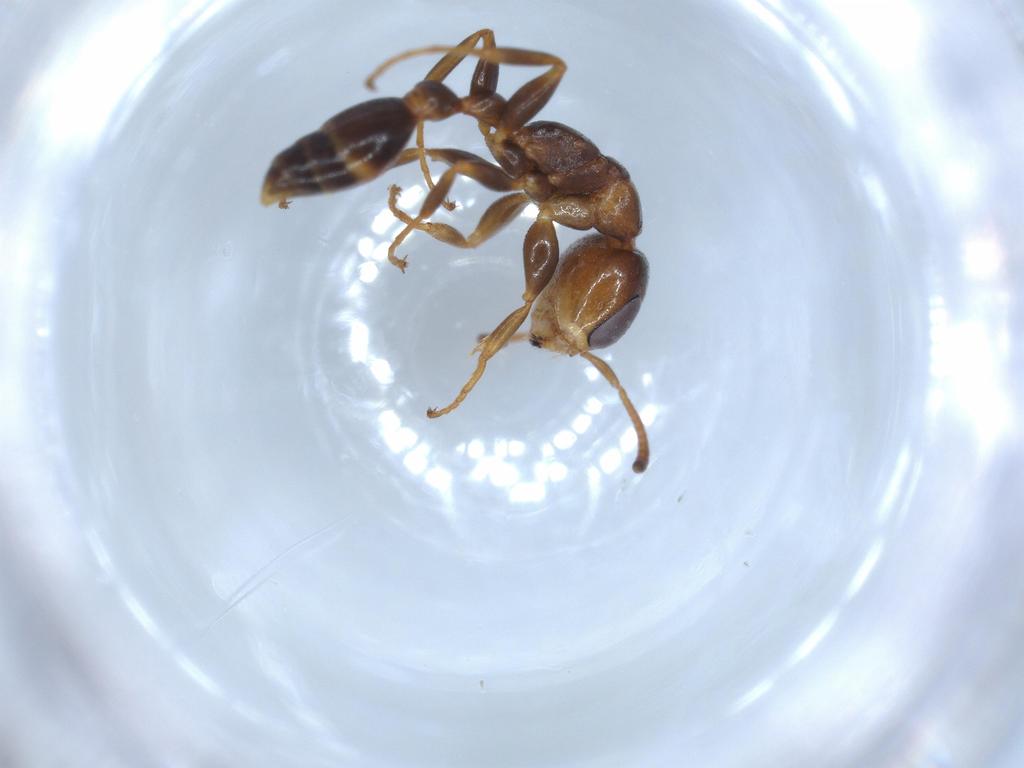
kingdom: Animalia
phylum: Arthropoda
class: Insecta
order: Hymenoptera
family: Formicidae
